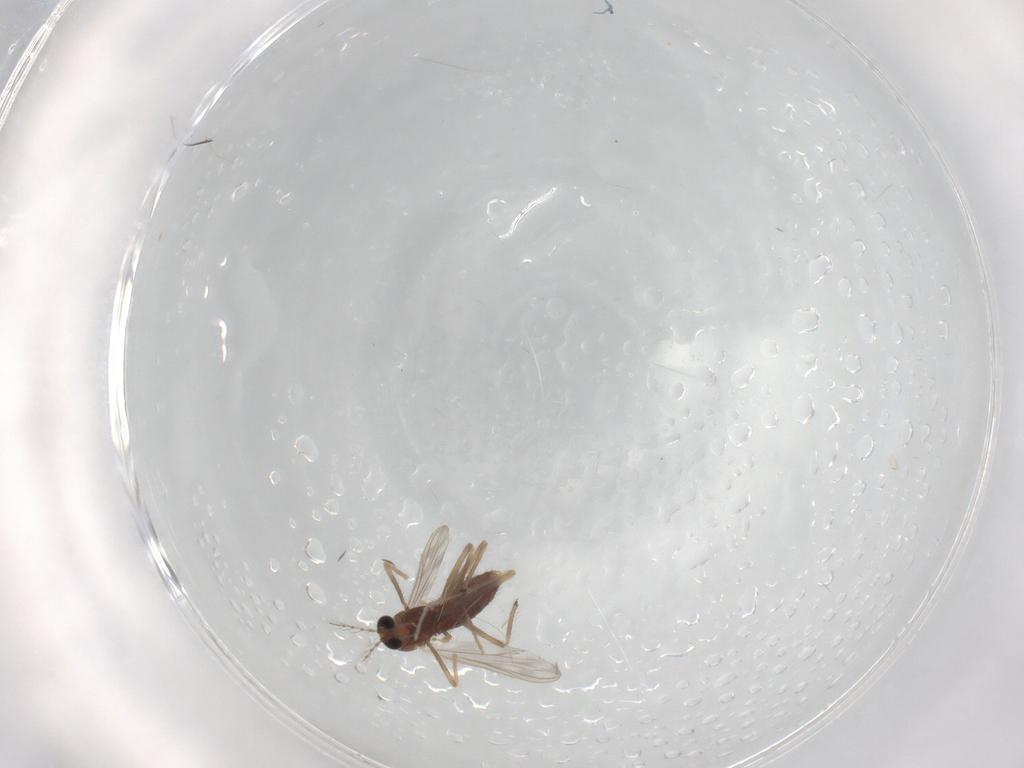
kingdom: Animalia
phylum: Arthropoda
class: Insecta
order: Diptera
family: Chironomidae
